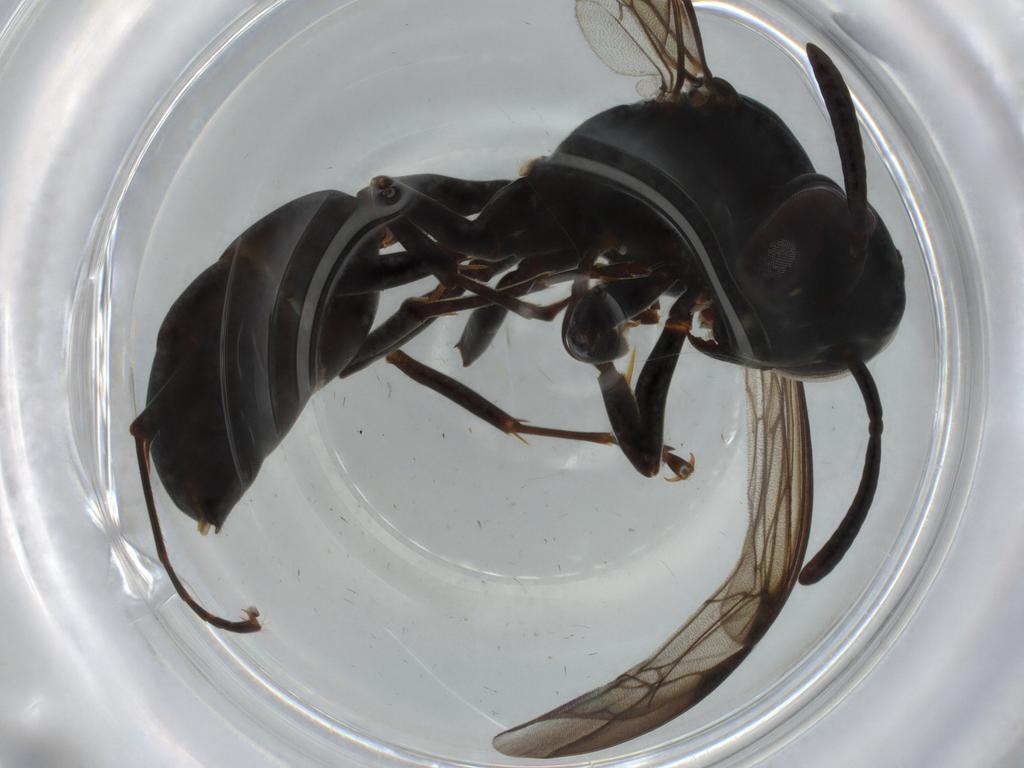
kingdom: Animalia
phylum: Arthropoda
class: Insecta
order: Hymenoptera
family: Vespidae
